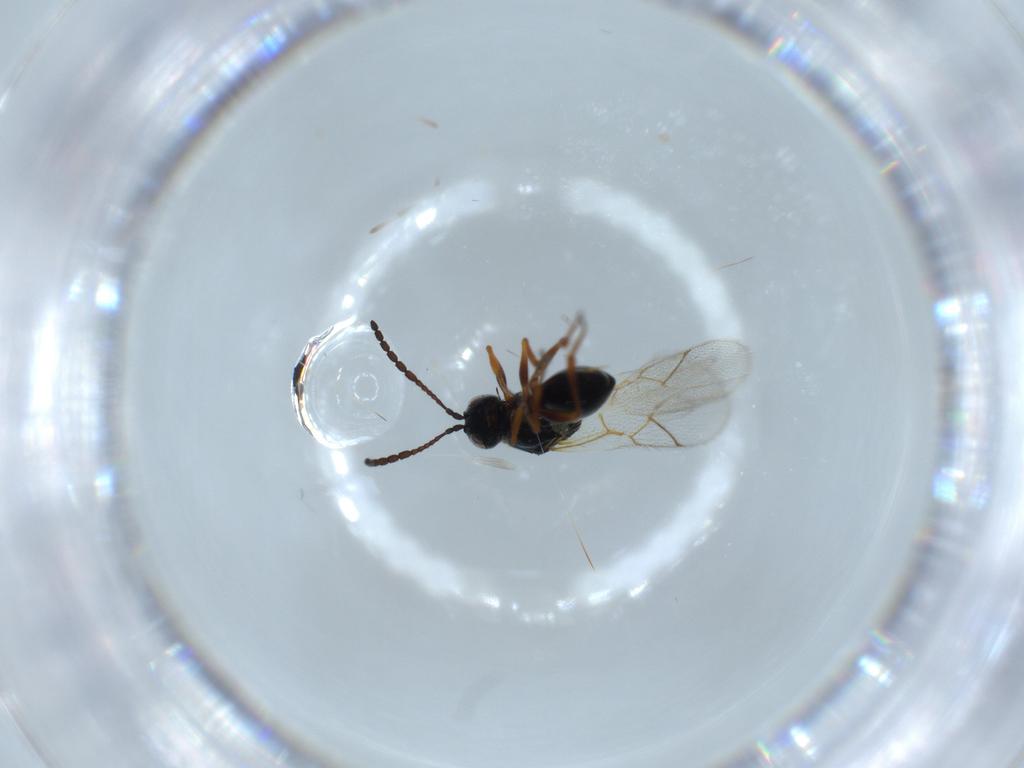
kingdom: Animalia
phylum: Arthropoda
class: Insecta
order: Hymenoptera
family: Figitidae
